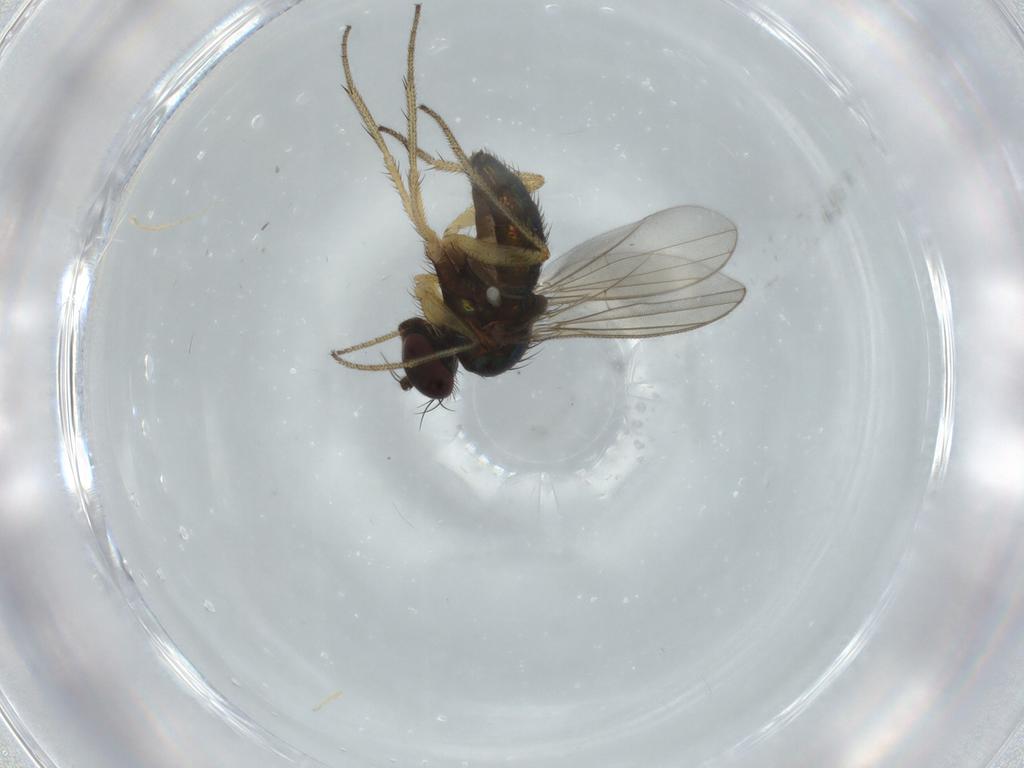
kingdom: Animalia
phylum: Arthropoda
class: Insecta
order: Diptera
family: Dolichopodidae
